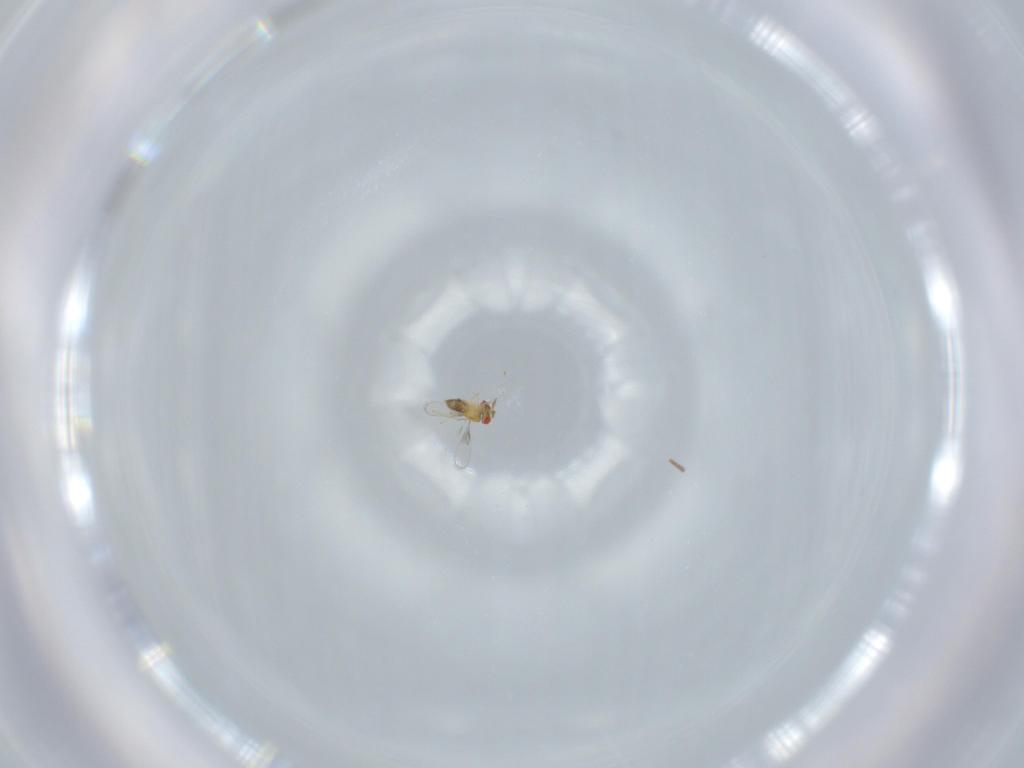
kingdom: Animalia
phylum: Arthropoda
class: Insecta
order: Hymenoptera
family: Trichogrammatidae
